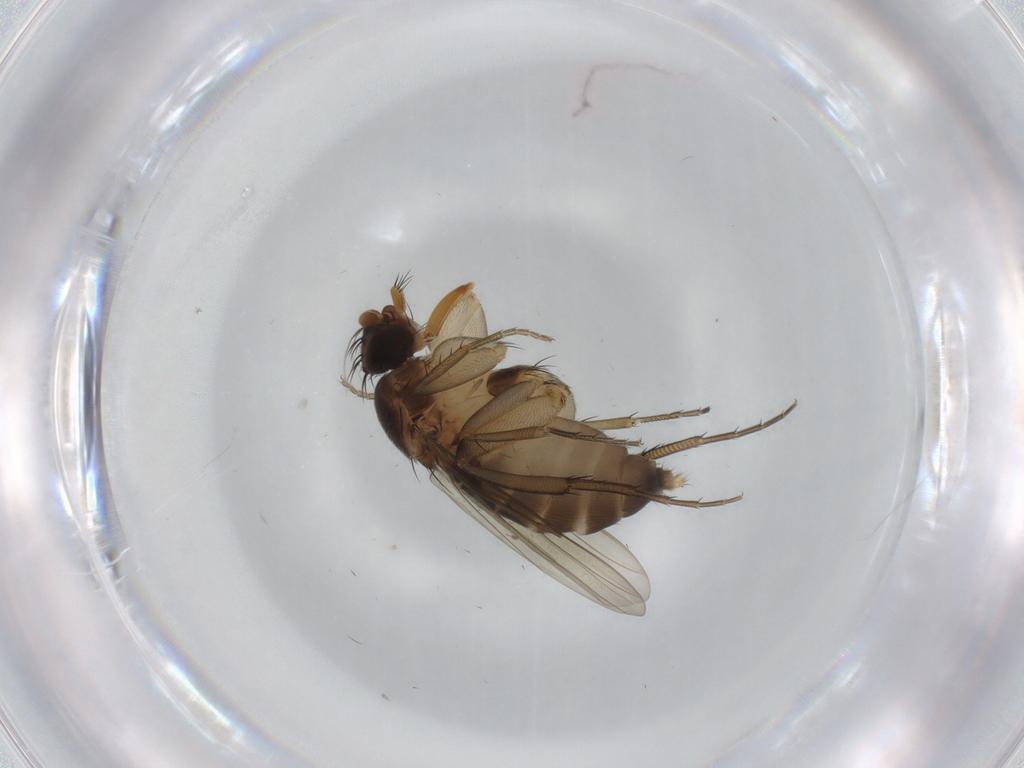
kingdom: Animalia
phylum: Arthropoda
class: Insecta
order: Diptera
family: Phoridae
